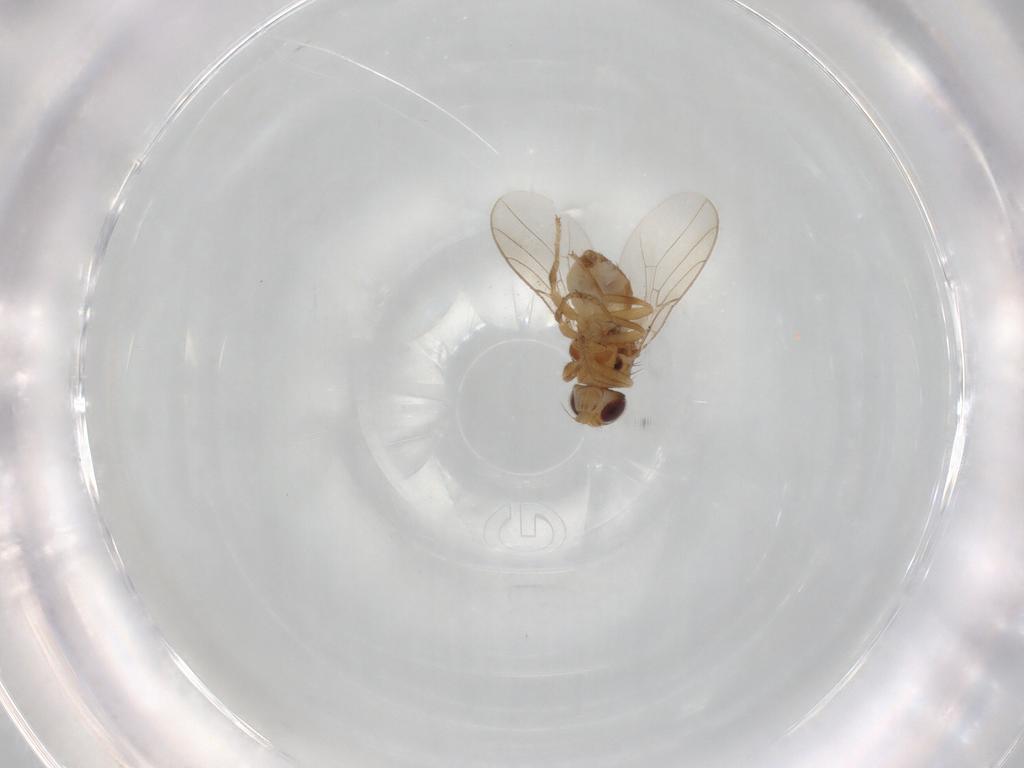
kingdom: Animalia
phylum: Arthropoda
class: Insecta
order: Diptera
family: Chloropidae
